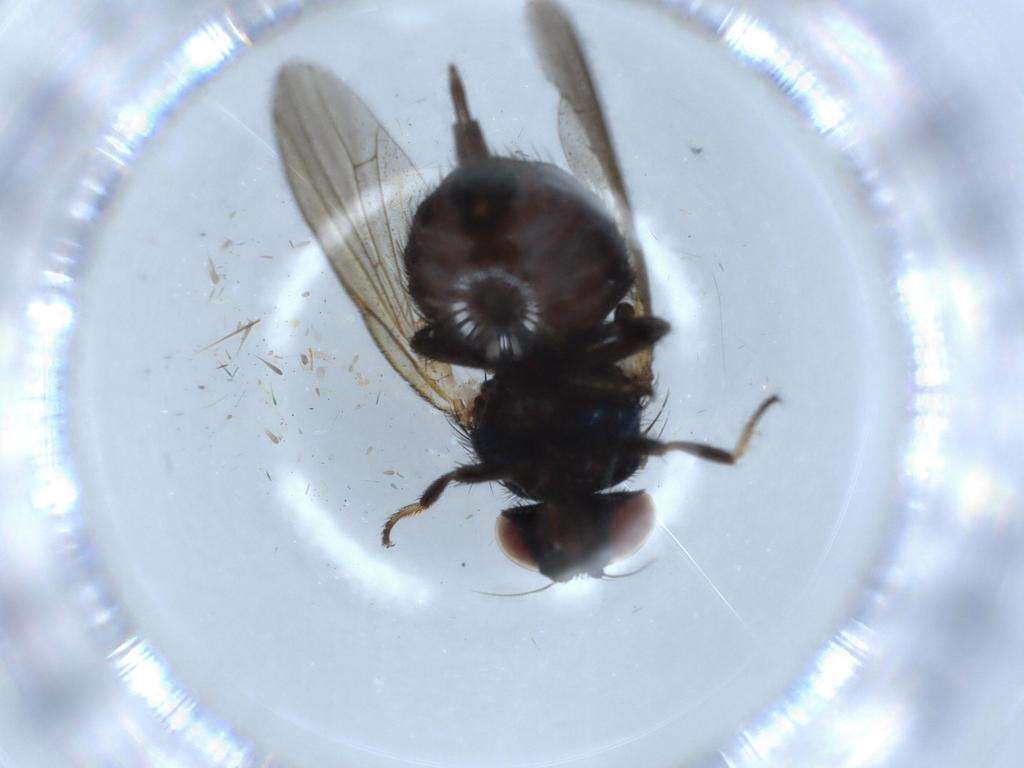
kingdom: Animalia
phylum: Arthropoda
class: Insecta
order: Diptera
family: Lonchaeidae
